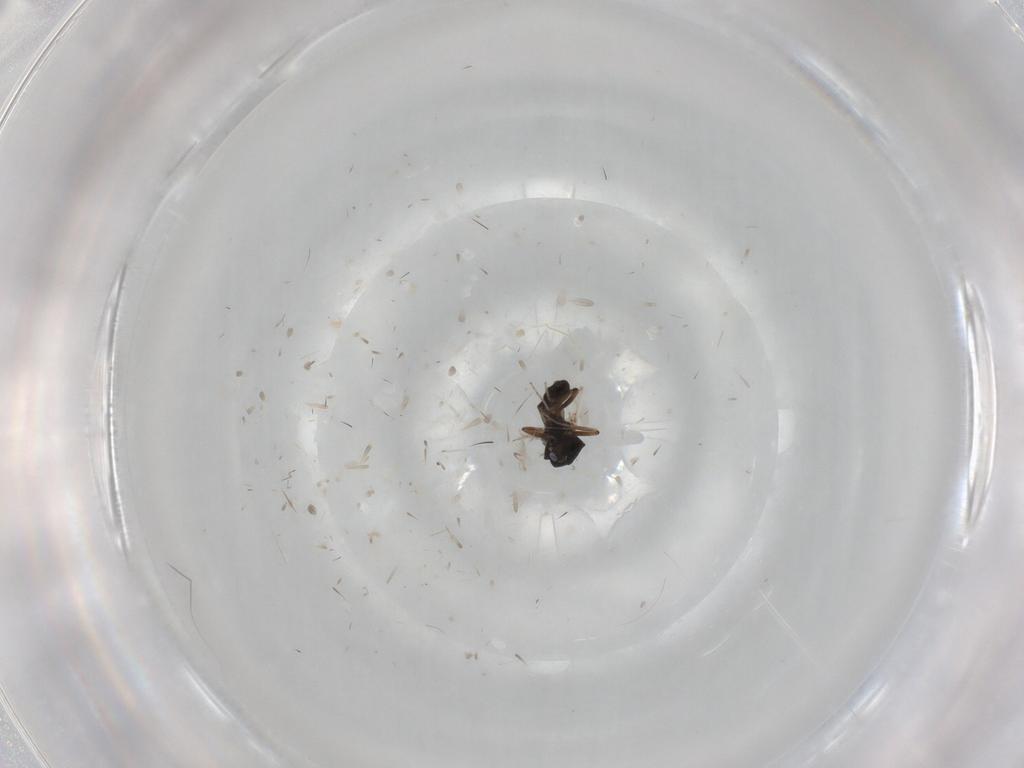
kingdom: Animalia
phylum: Arthropoda
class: Insecta
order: Diptera
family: Ceratopogonidae
